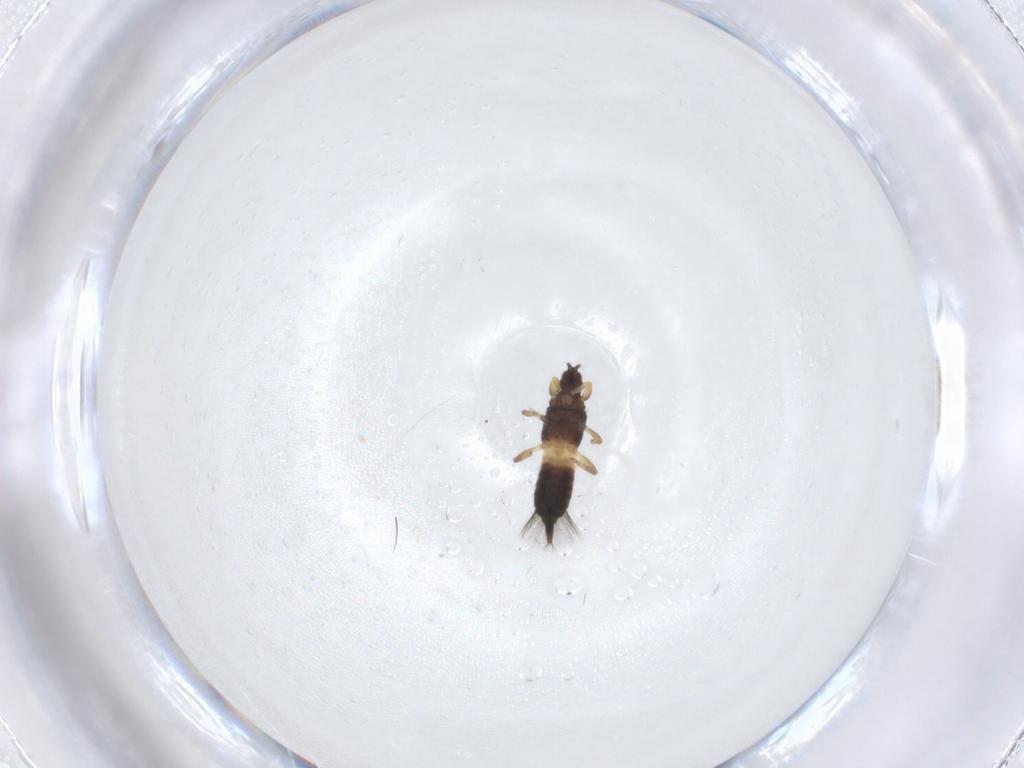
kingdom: Animalia
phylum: Arthropoda
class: Insecta
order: Thysanoptera
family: Phlaeothripidae
